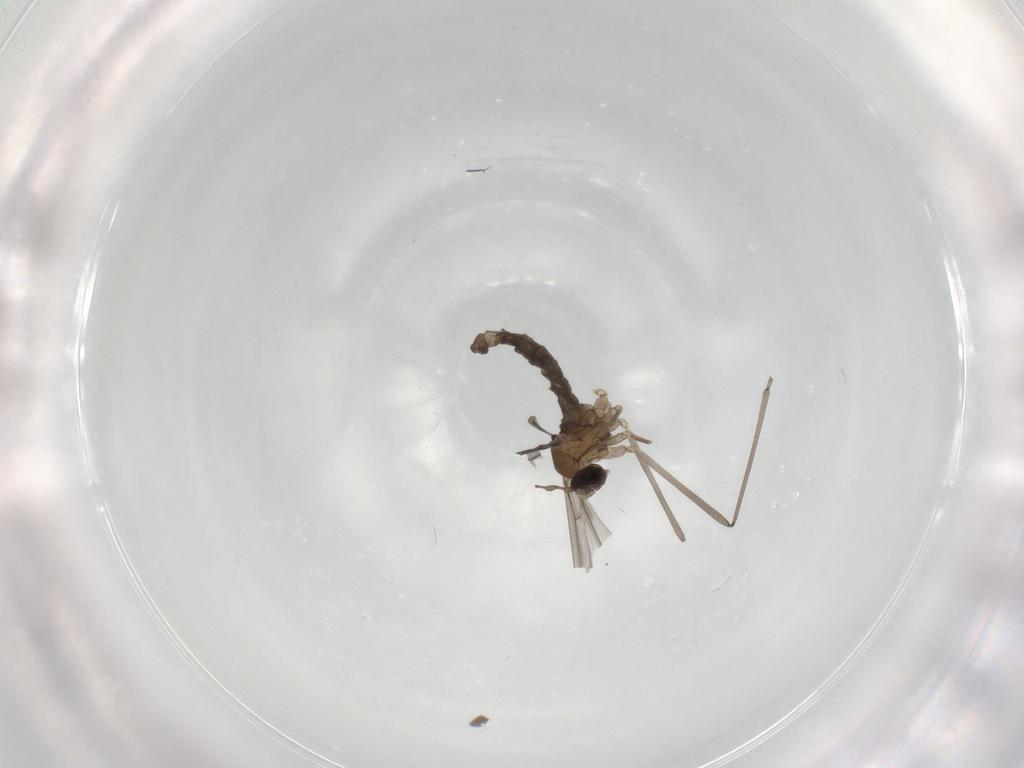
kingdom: Animalia
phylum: Arthropoda
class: Insecta
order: Diptera
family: Cecidomyiidae
